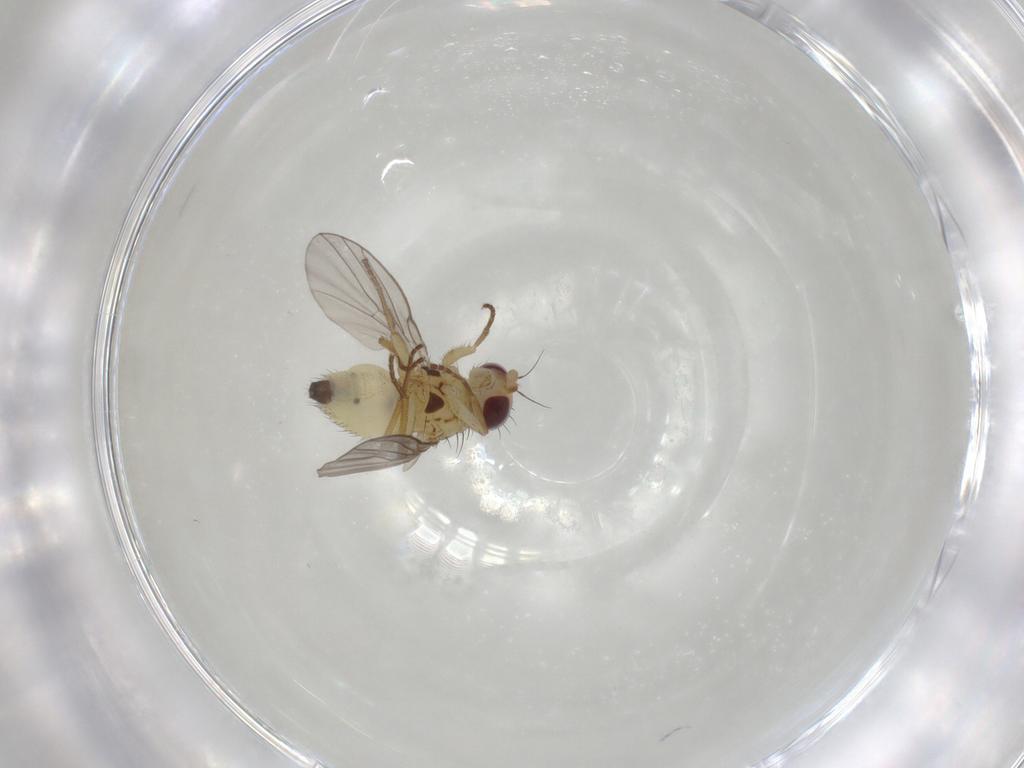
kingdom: Animalia
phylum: Arthropoda
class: Insecta
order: Diptera
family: Agromyzidae
